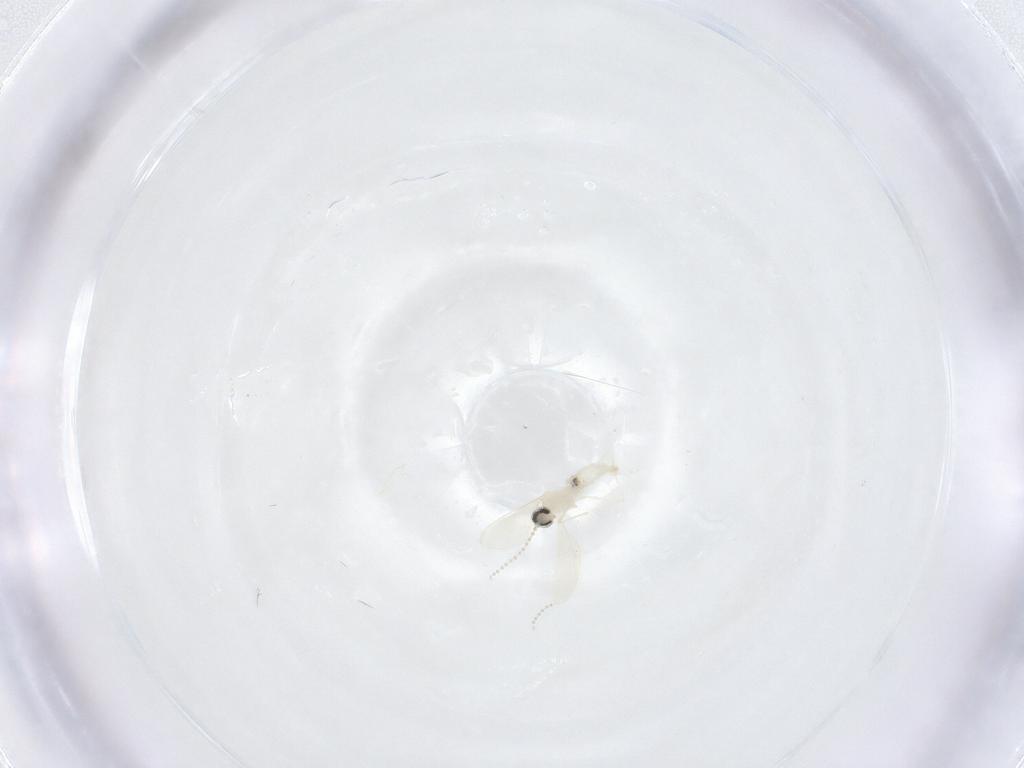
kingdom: Animalia
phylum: Arthropoda
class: Insecta
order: Diptera
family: Cecidomyiidae
